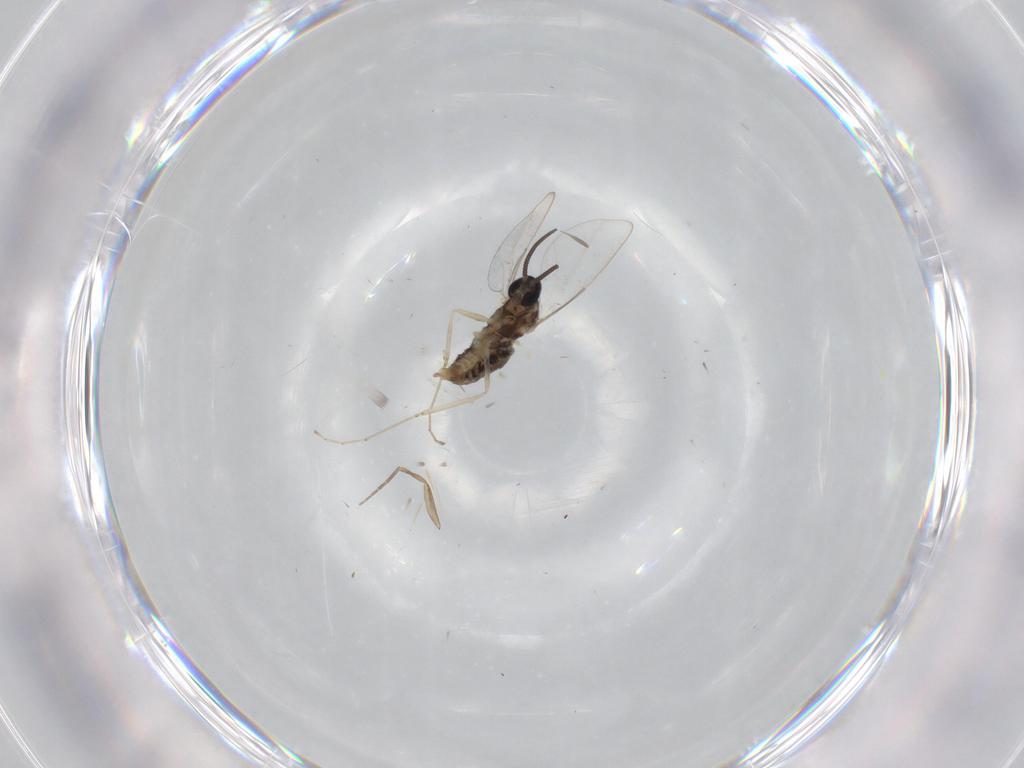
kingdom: Animalia
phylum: Arthropoda
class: Insecta
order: Diptera
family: Cecidomyiidae
